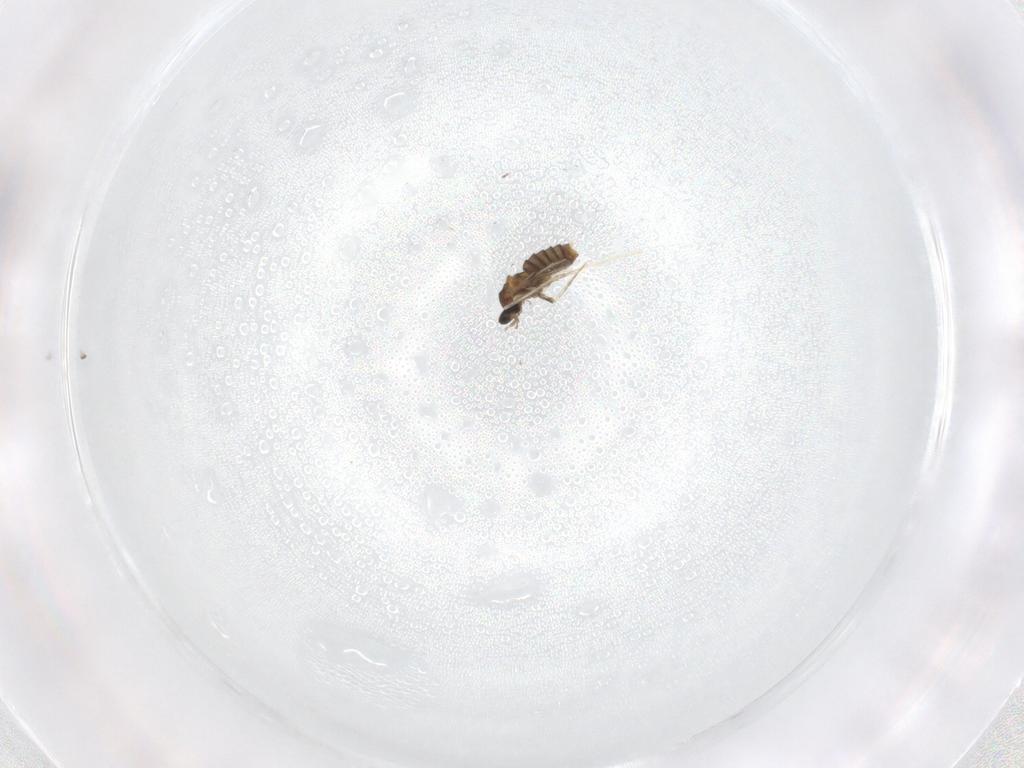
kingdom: Animalia
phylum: Arthropoda
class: Insecta
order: Diptera
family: Cecidomyiidae
